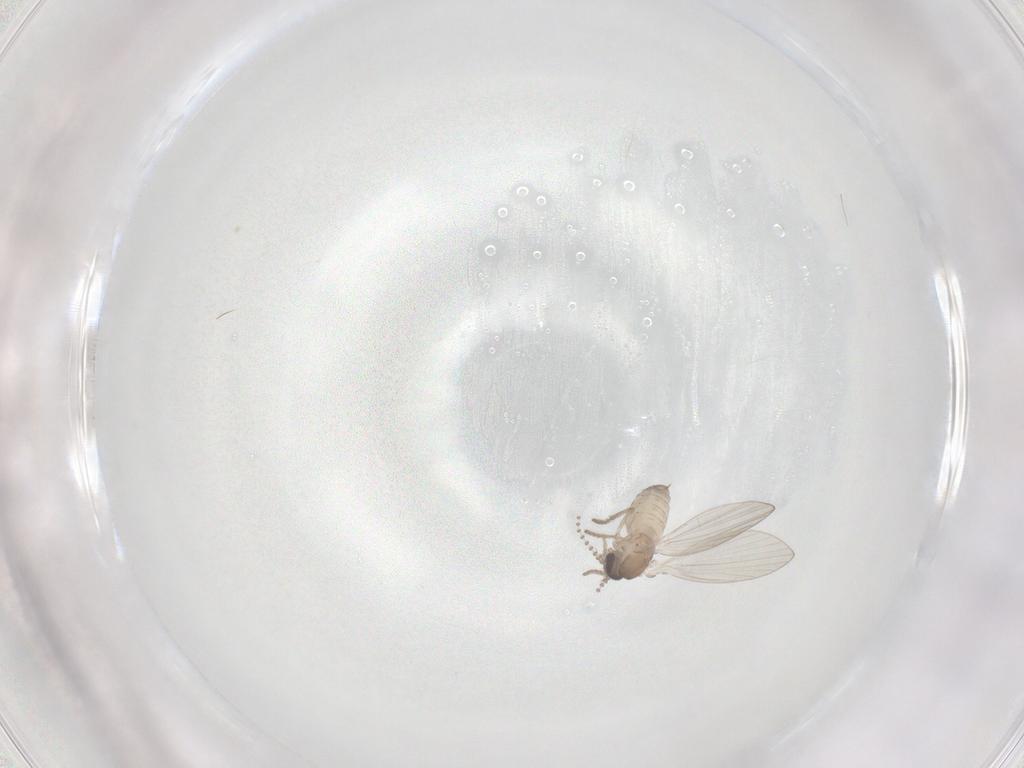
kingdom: Animalia
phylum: Arthropoda
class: Insecta
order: Diptera
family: Psychodidae
